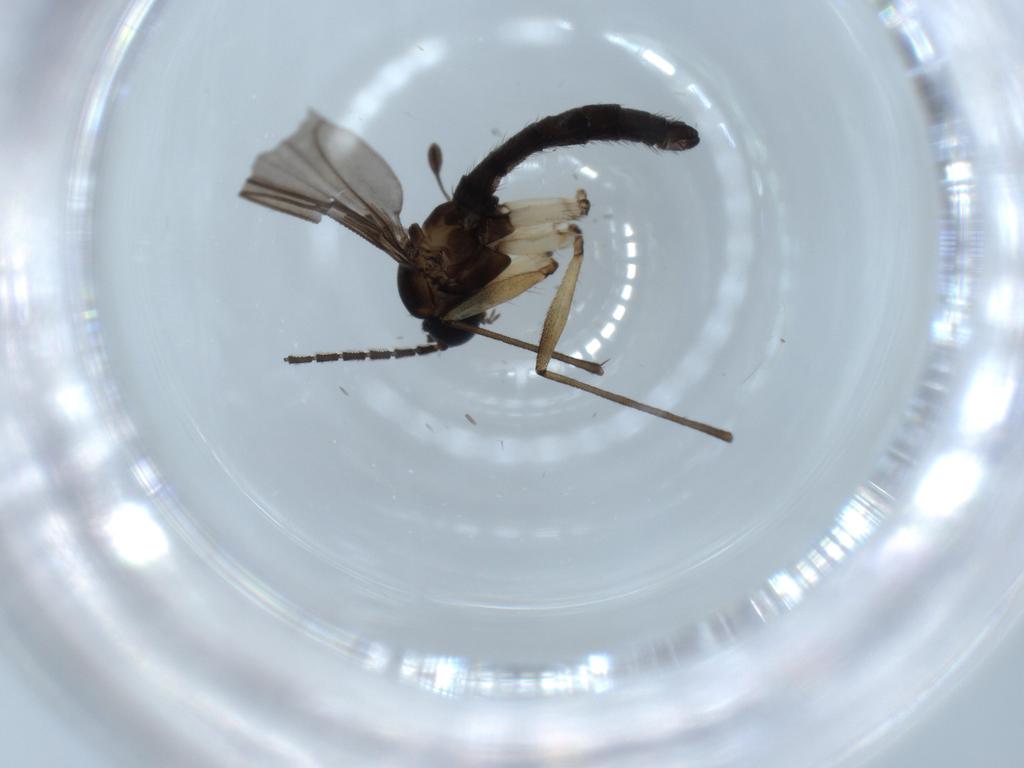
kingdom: Animalia
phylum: Arthropoda
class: Insecta
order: Diptera
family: Sciaridae
